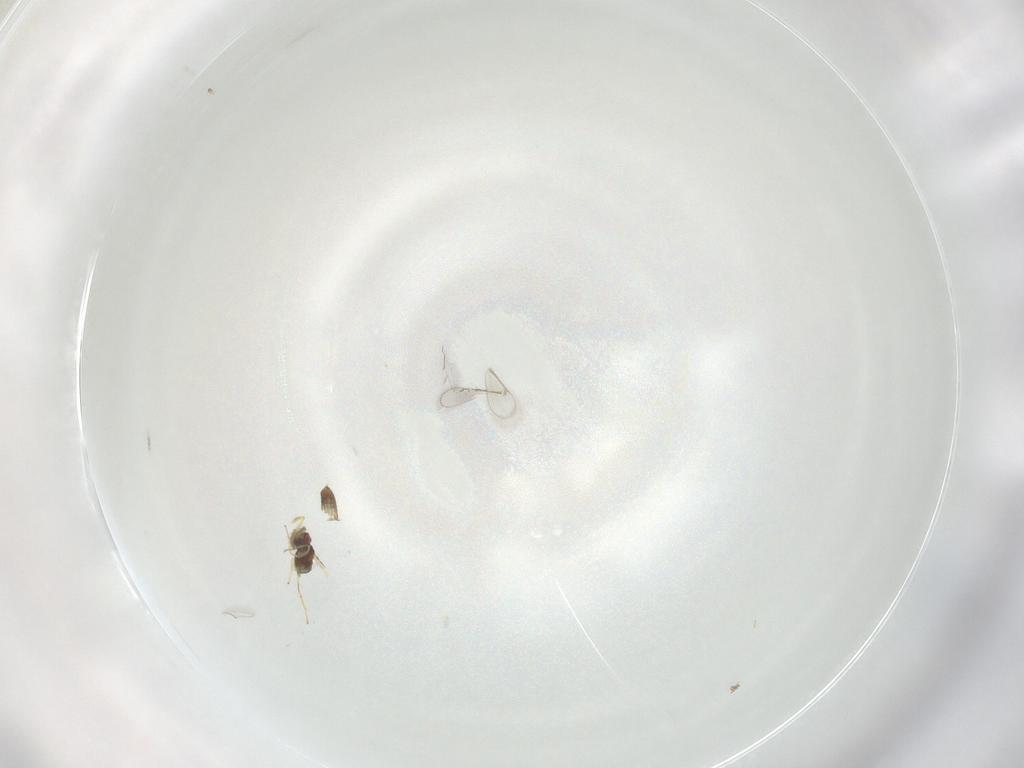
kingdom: Animalia
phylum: Arthropoda
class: Insecta
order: Hymenoptera
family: Eulophidae
